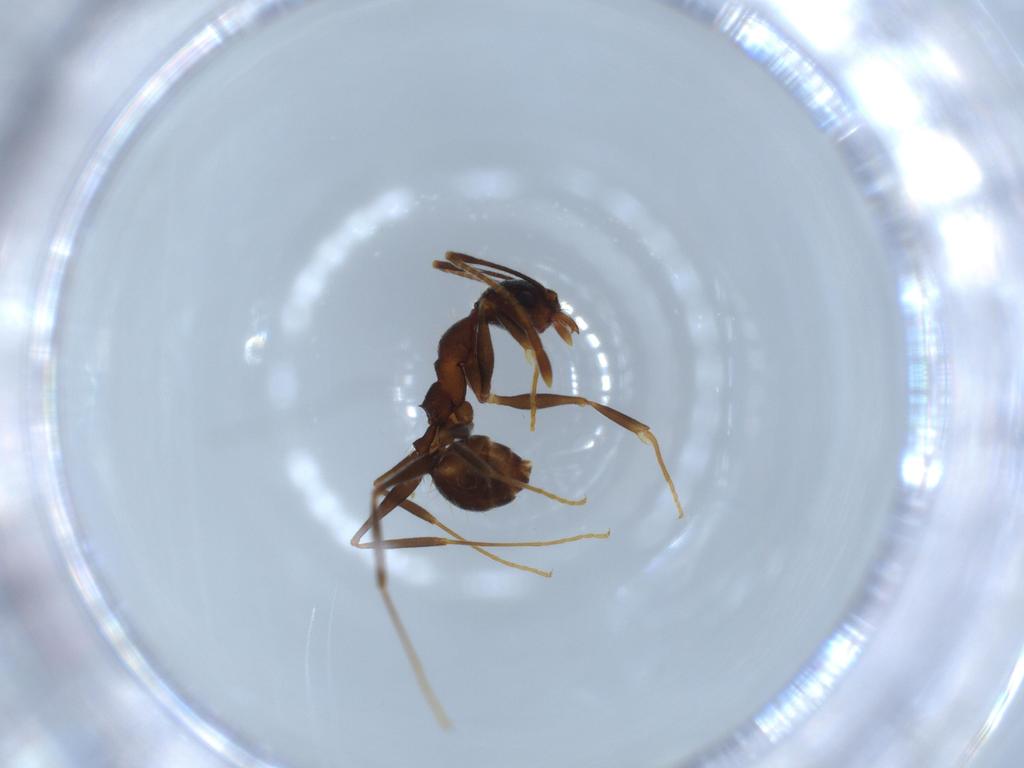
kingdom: Animalia
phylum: Arthropoda
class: Insecta
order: Hymenoptera
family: Formicidae
